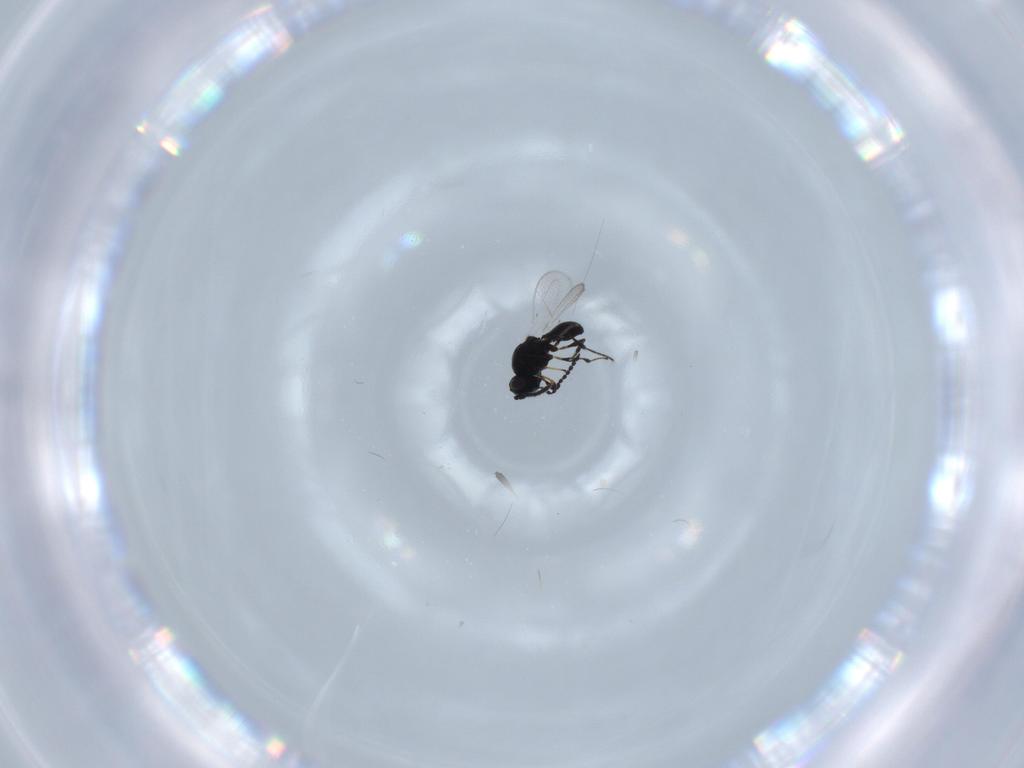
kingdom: Animalia
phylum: Arthropoda
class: Insecta
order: Hymenoptera
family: Platygastridae
